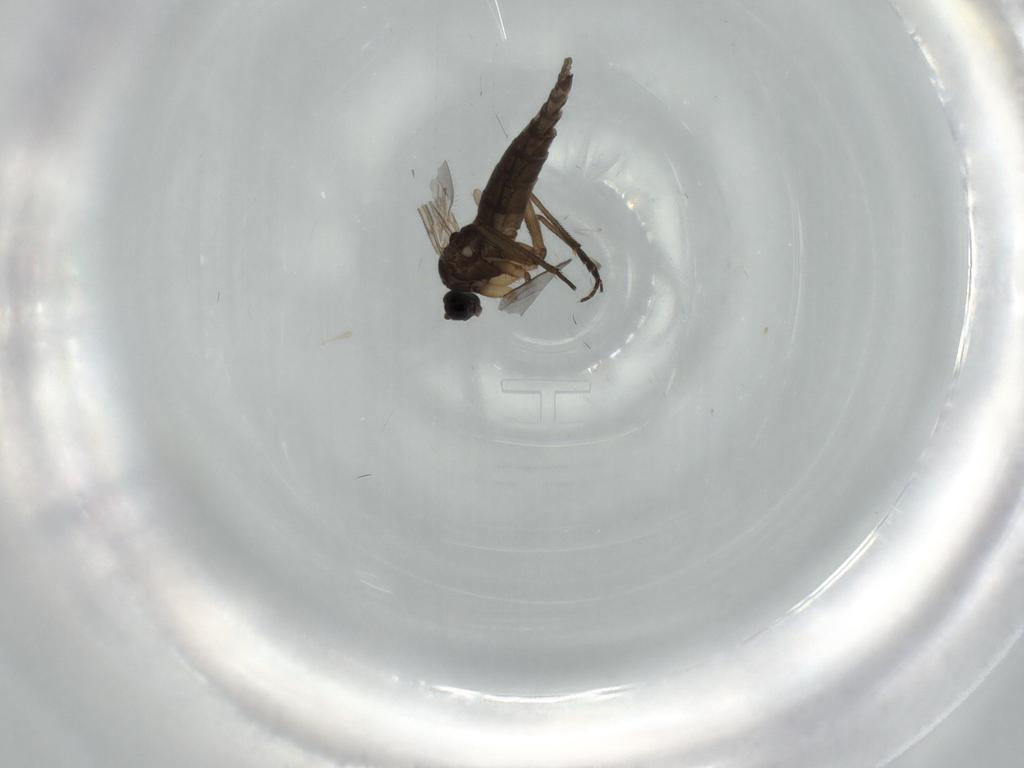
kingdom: Animalia
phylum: Arthropoda
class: Insecta
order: Diptera
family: Sciaridae
